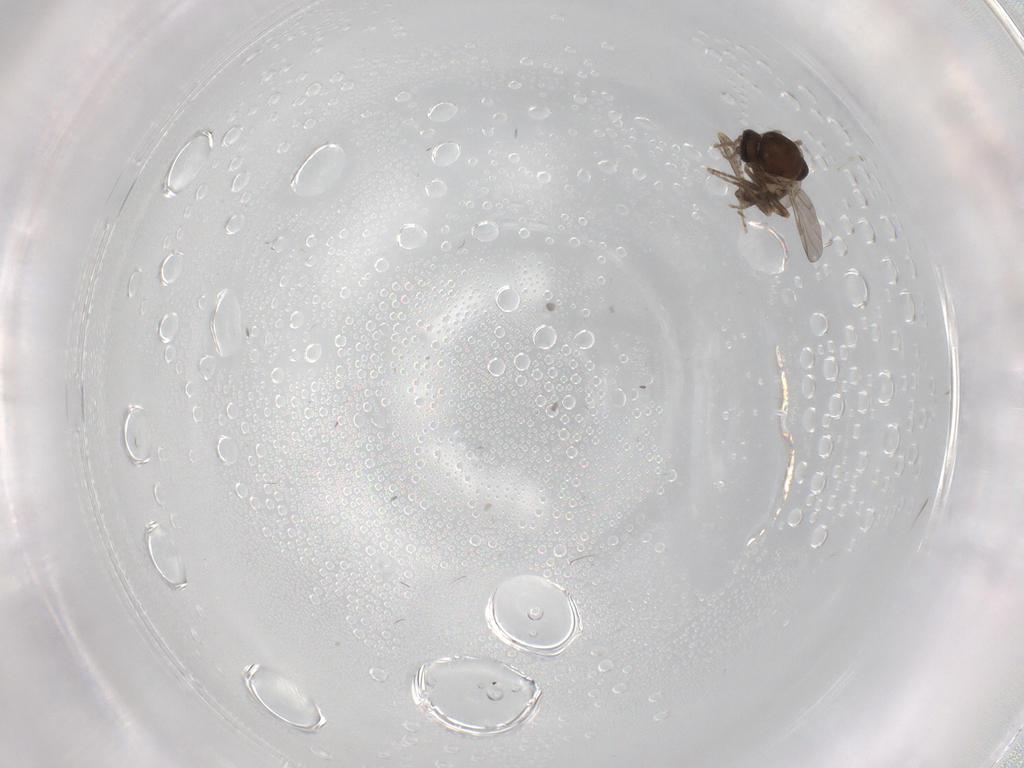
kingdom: Animalia
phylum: Arthropoda
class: Insecta
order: Diptera
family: Ceratopogonidae
